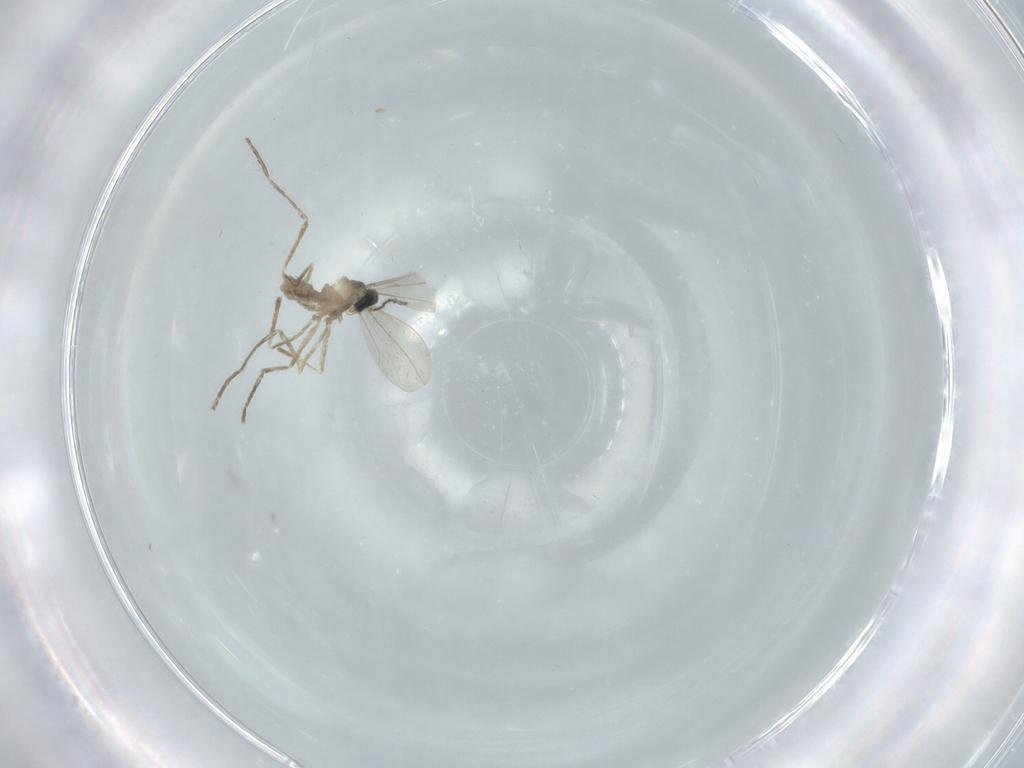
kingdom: Animalia
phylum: Arthropoda
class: Insecta
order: Diptera
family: Cecidomyiidae
